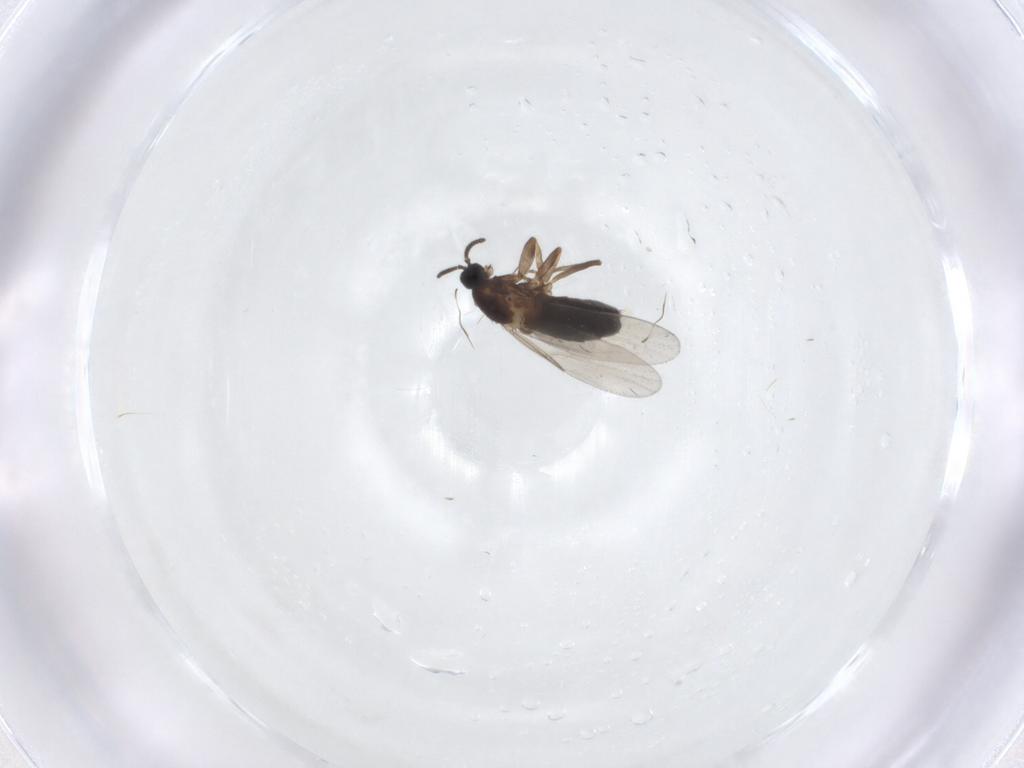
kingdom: Animalia
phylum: Arthropoda
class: Insecta
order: Diptera
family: Scatopsidae
